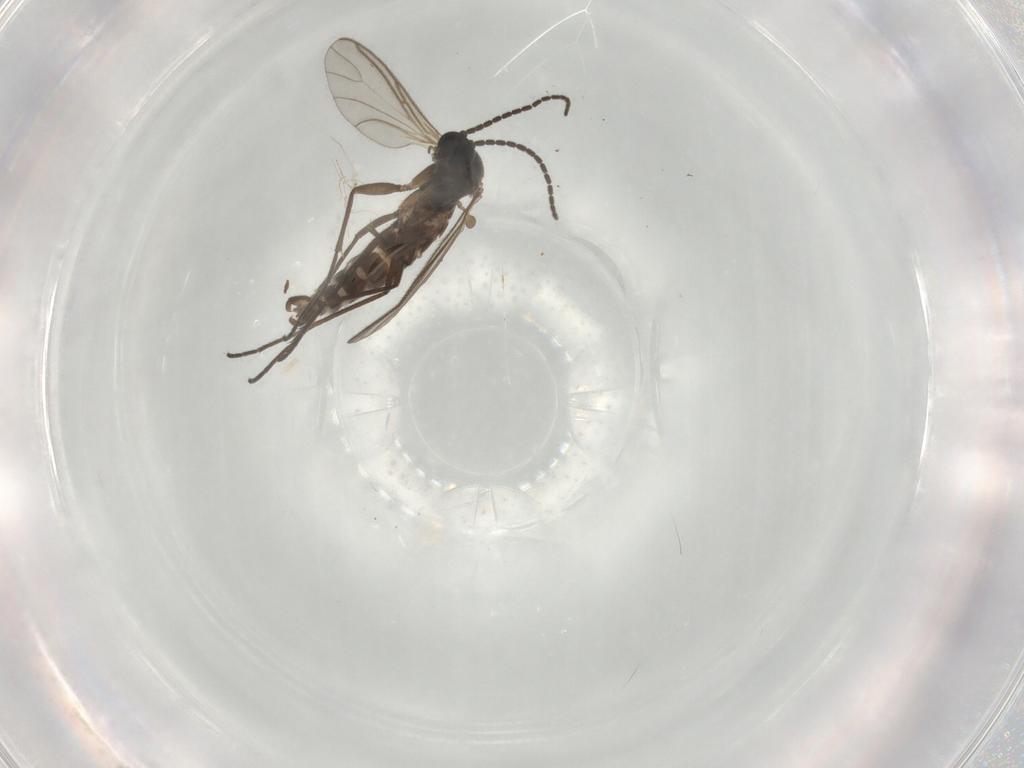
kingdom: Animalia
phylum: Arthropoda
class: Insecta
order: Diptera
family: Sciaridae
